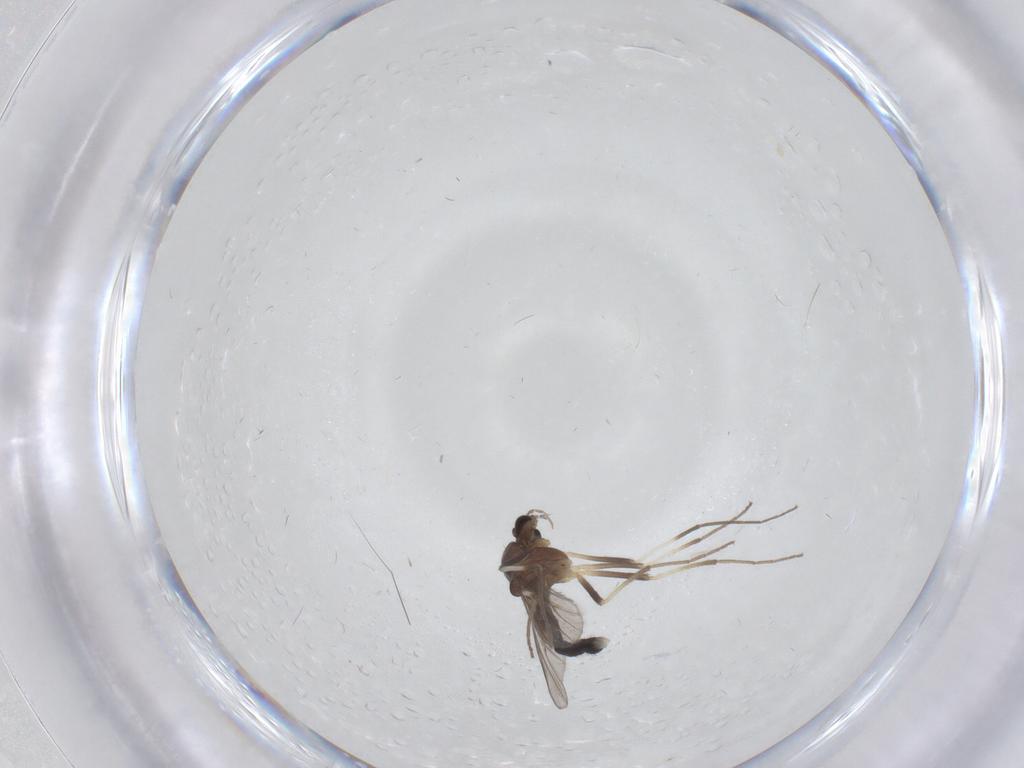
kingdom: Animalia
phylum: Arthropoda
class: Insecta
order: Diptera
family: Chironomidae
